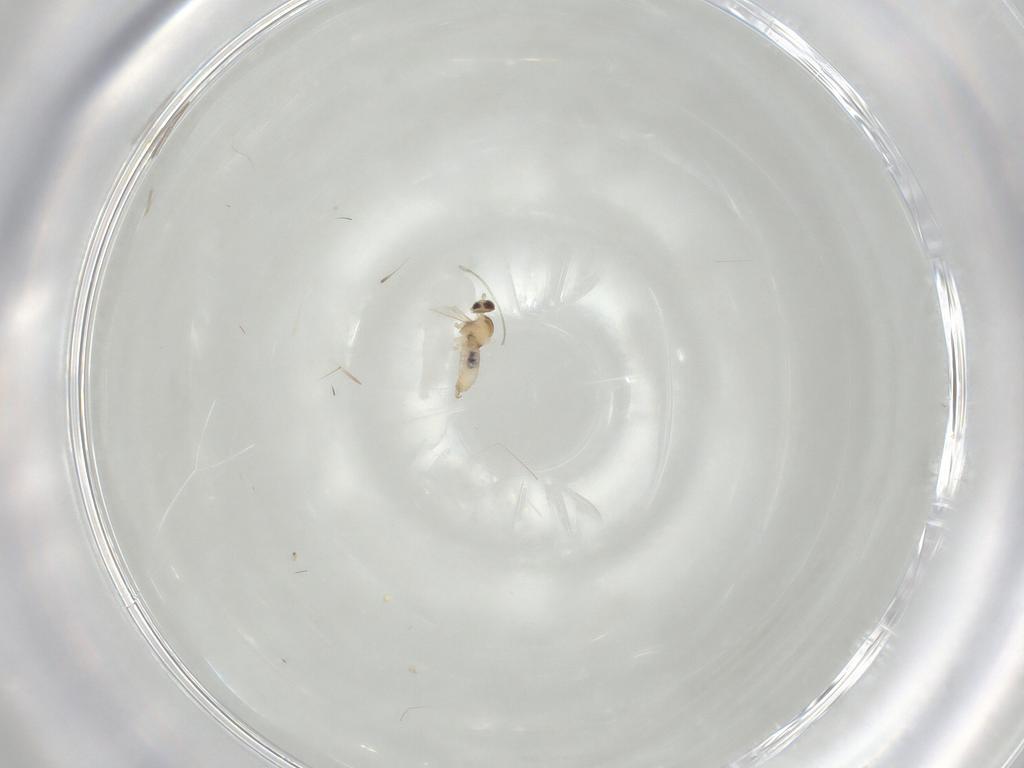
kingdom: Animalia
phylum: Arthropoda
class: Insecta
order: Diptera
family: Cecidomyiidae
